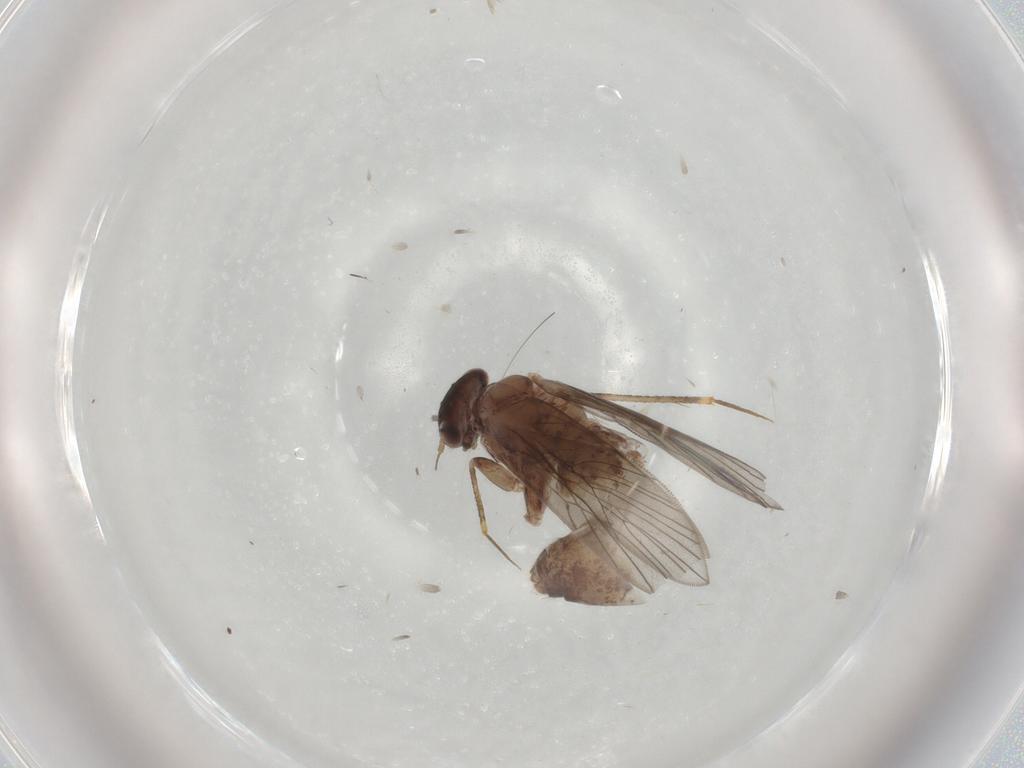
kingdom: Animalia
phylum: Arthropoda
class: Insecta
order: Psocodea
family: Lepidopsocidae
